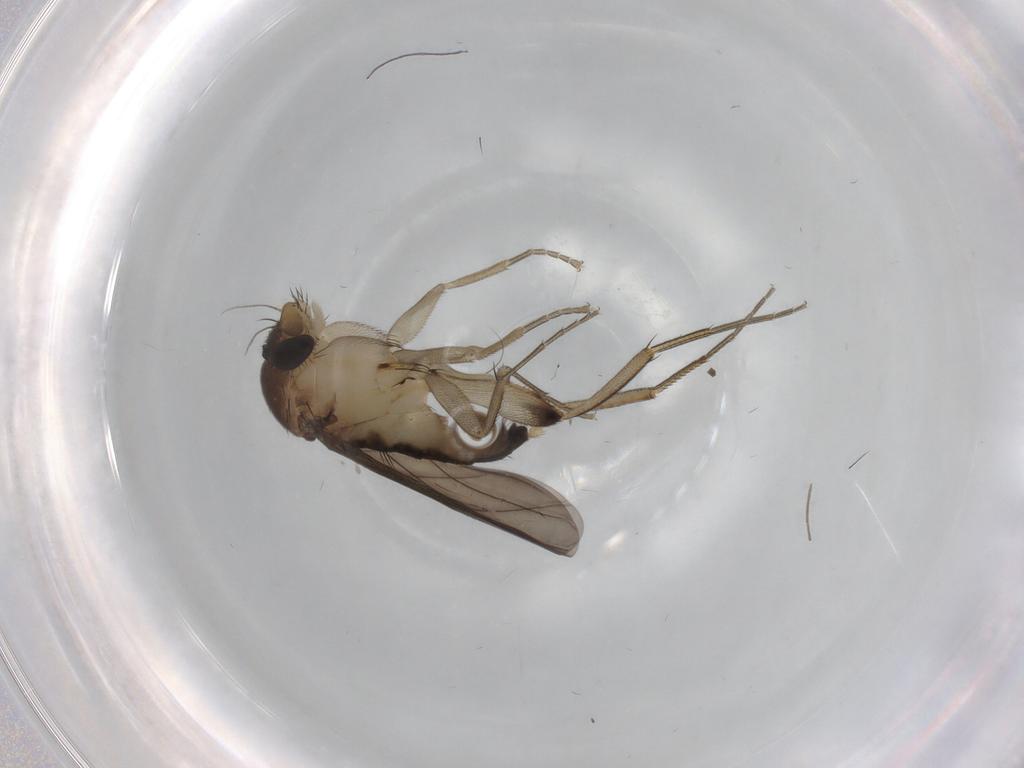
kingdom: Animalia
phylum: Arthropoda
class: Insecta
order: Diptera
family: Phoridae
